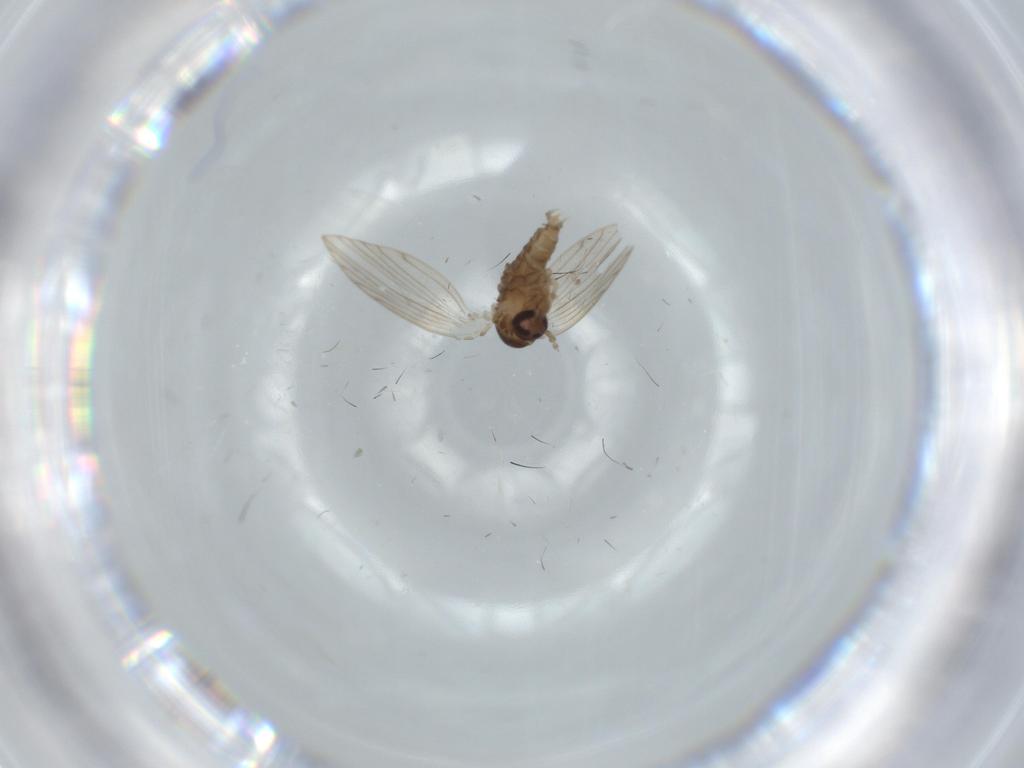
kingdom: Animalia
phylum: Arthropoda
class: Insecta
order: Diptera
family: Psychodidae
